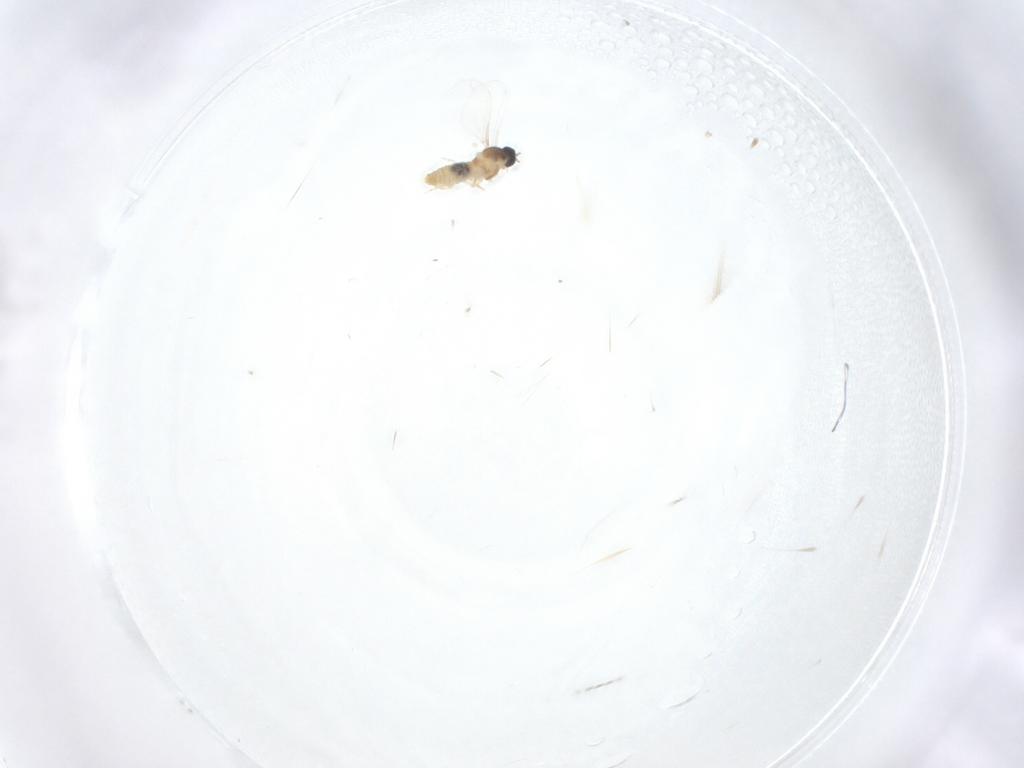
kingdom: Animalia
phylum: Arthropoda
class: Insecta
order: Diptera
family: Cecidomyiidae
